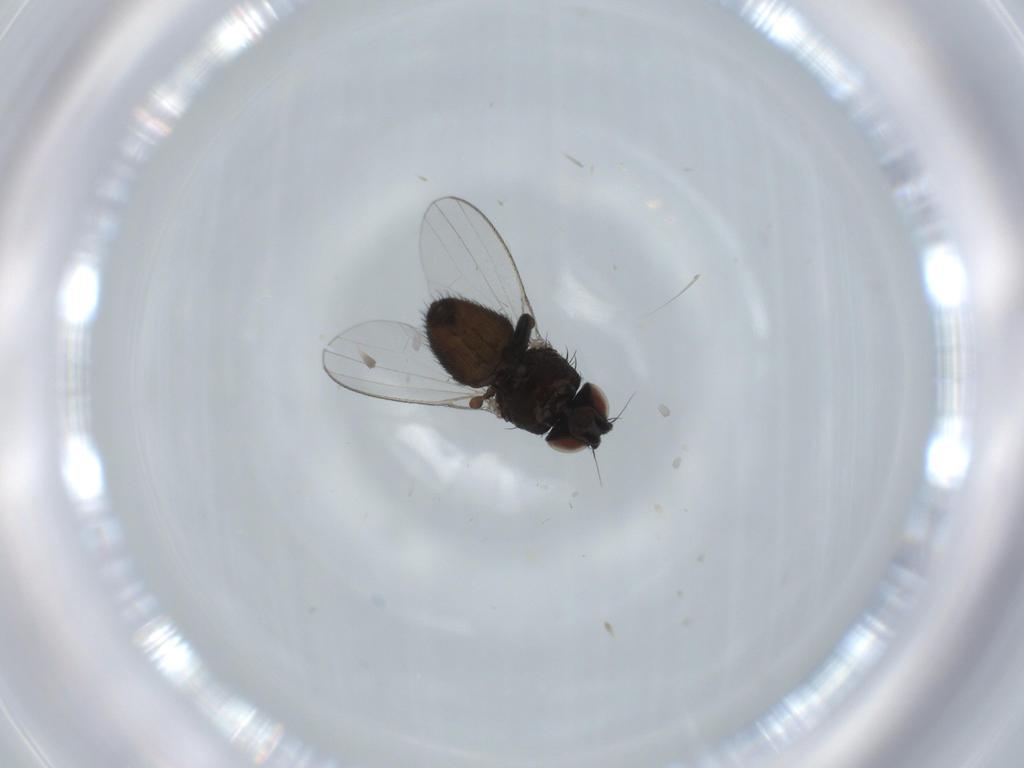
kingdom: Animalia
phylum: Arthropoda
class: Insecta
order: Diptera
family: Milichiidae
